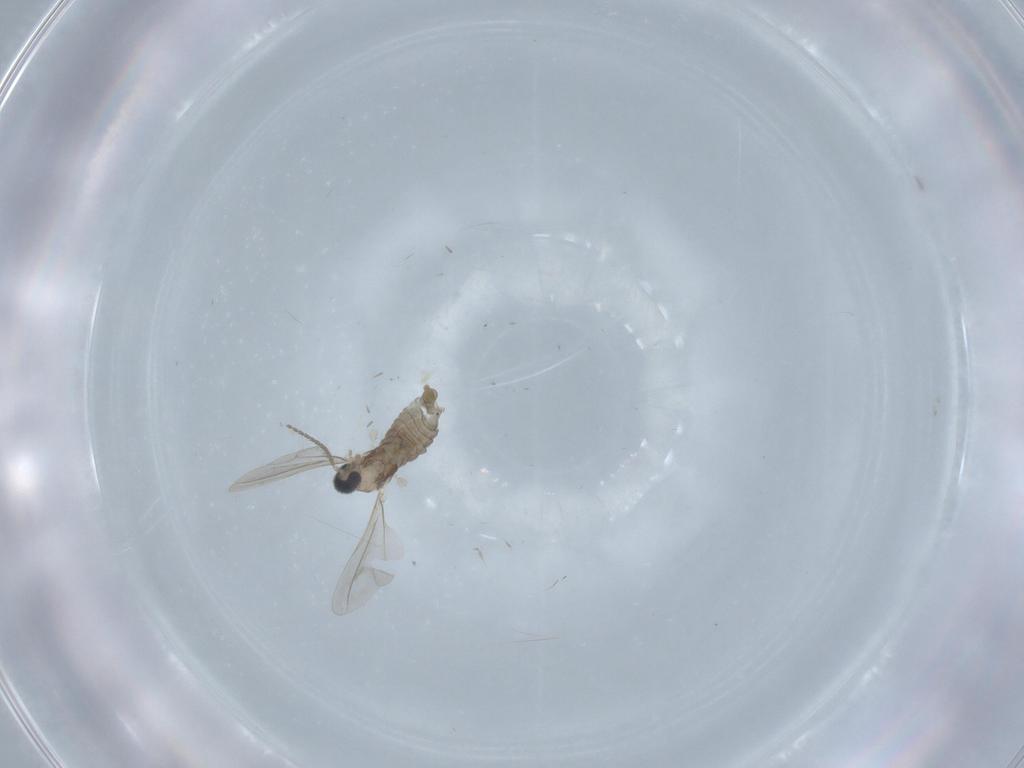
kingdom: Animalia
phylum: Arthropoda
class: Insecta
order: Diptera
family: Cecidomyiidae
